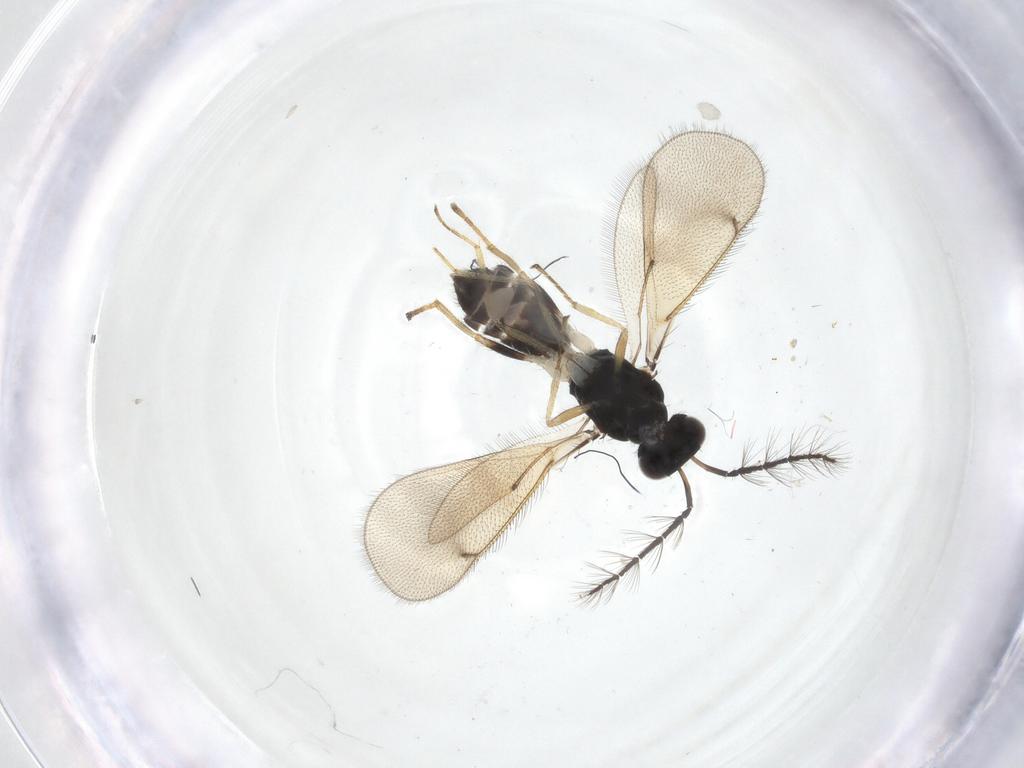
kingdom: Animalia
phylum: Arthropoda
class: Insecta
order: Hymenoptera
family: Eulophidae
